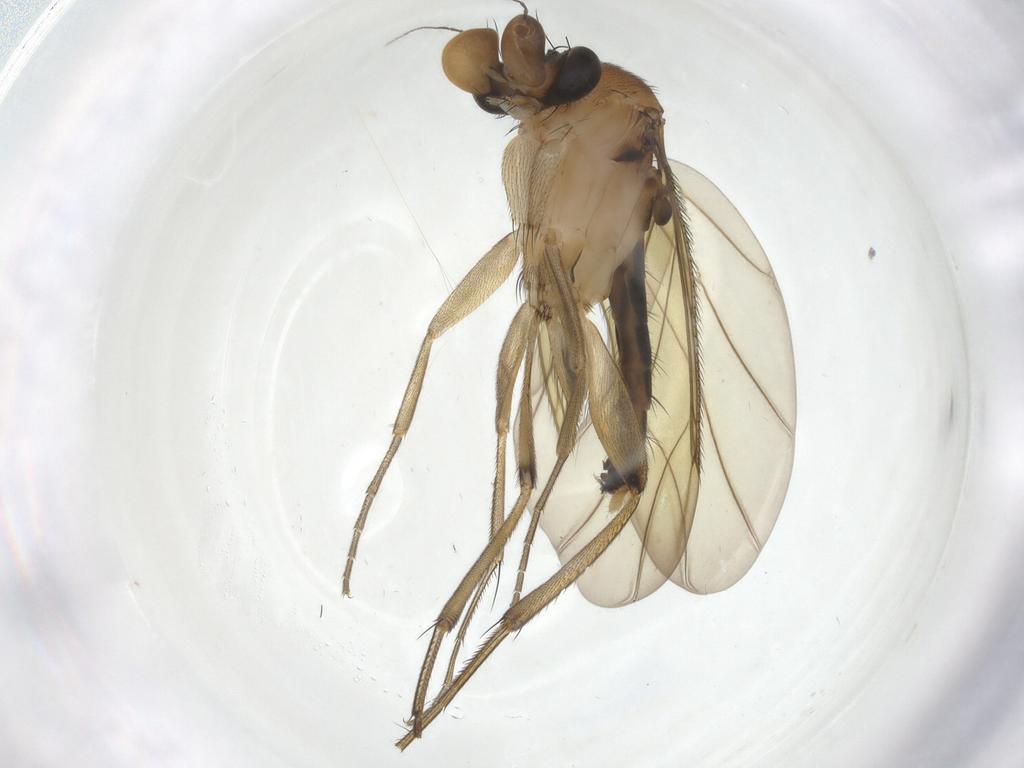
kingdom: Animalia
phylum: Arthropoda
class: Insecta
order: Diptera
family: Phoridae
